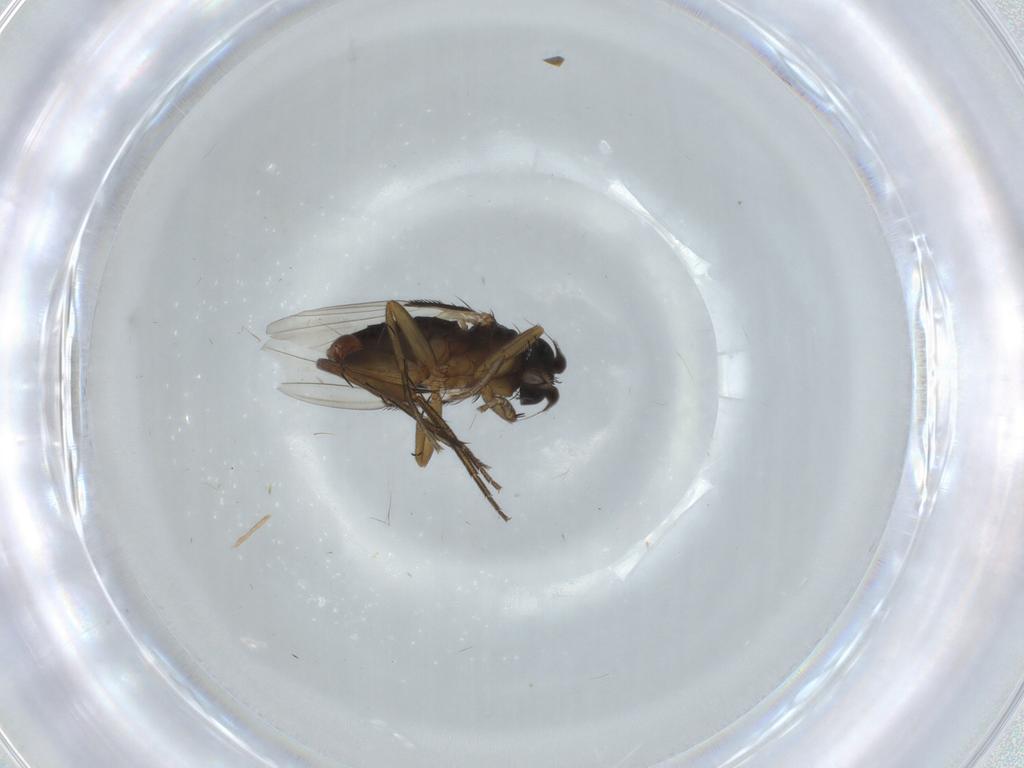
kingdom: Animalia
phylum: Arthropoda
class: Insecta
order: Diptera
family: Phoridae
